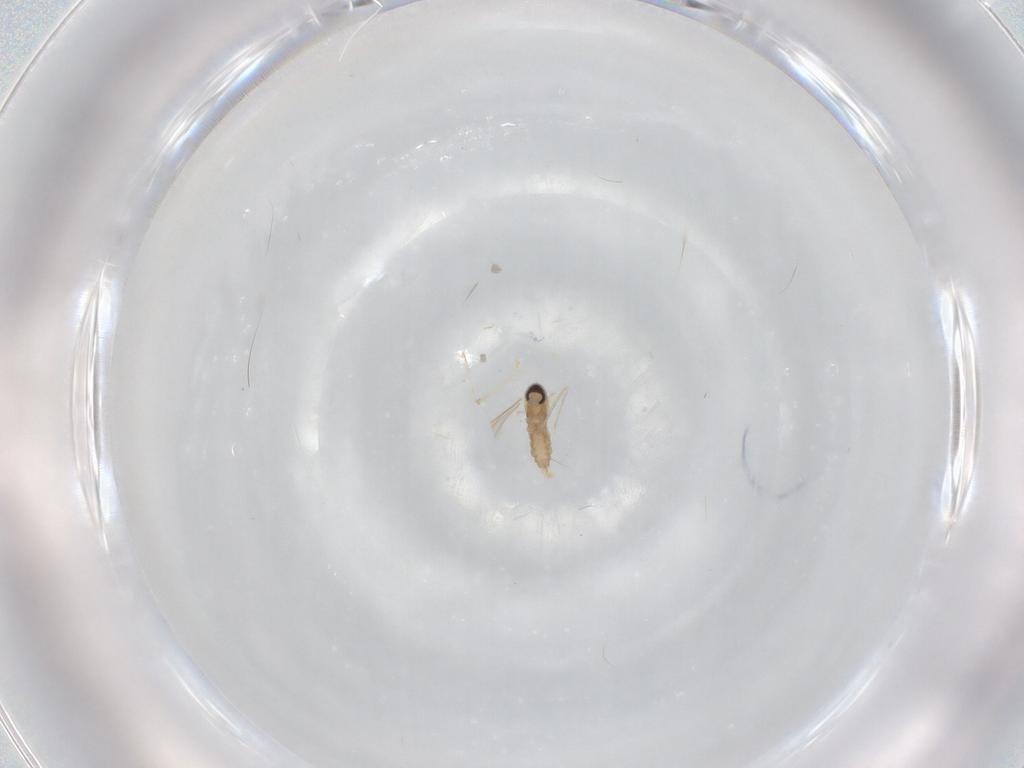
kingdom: Animalia
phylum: Arthropoda
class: Insecta
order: Diptera
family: Cecidomyiidae
